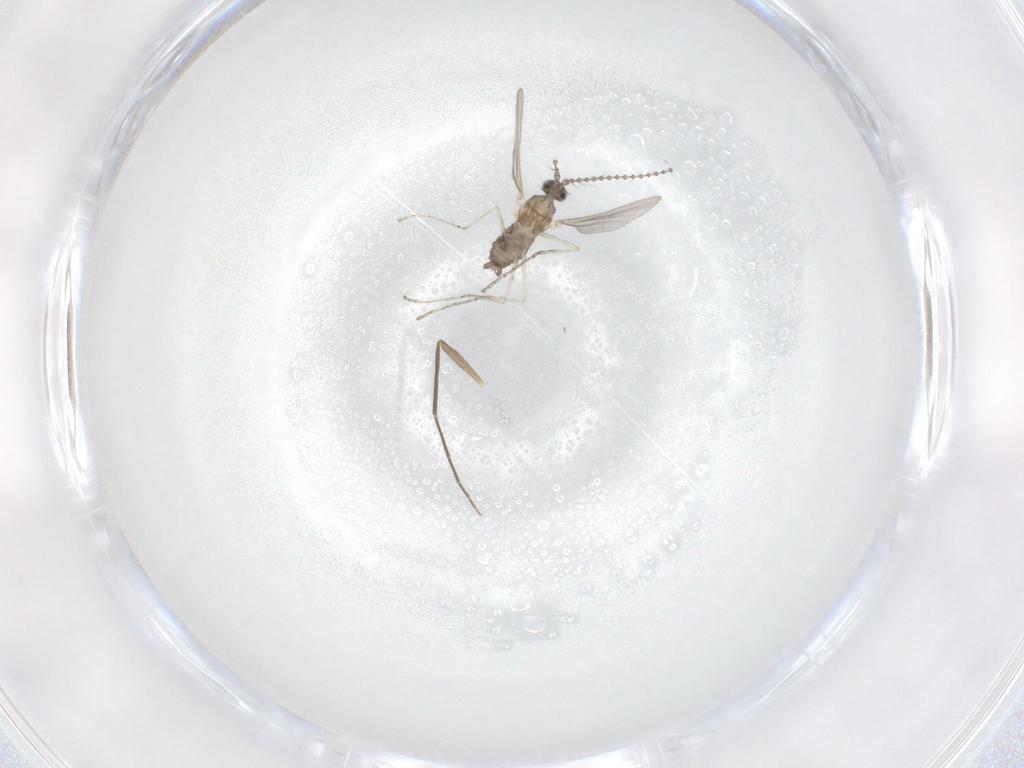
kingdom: Animalia
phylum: Arthropoda
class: Insecta
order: Diptera
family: Cecidomyiidae
